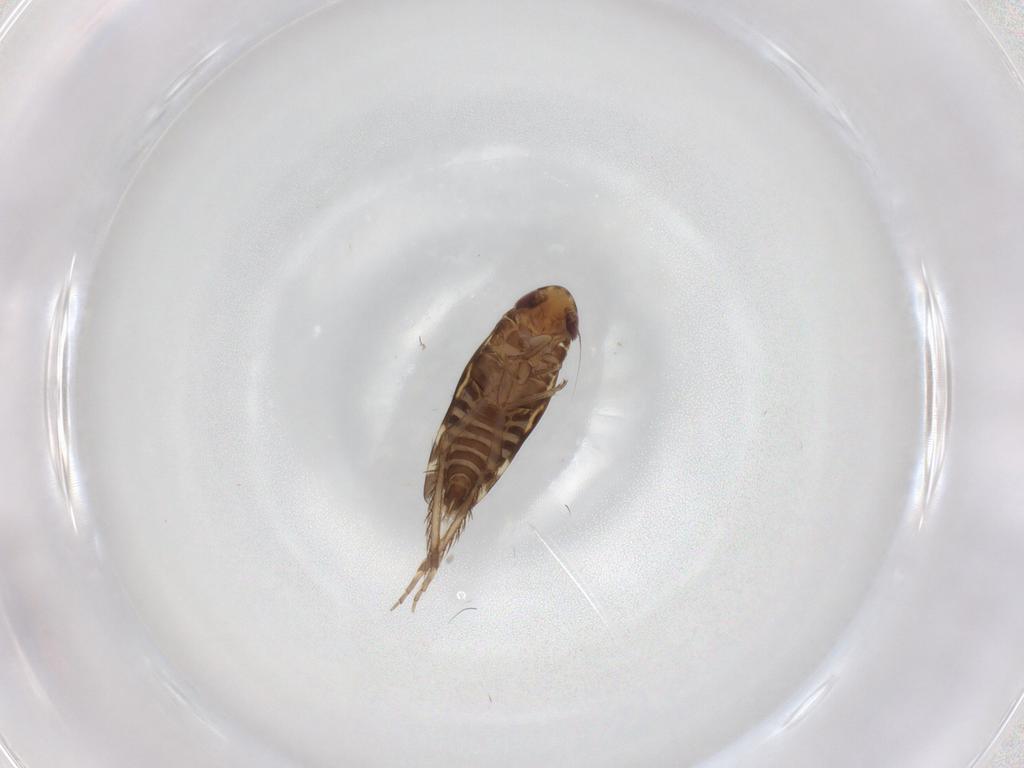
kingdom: Animalia
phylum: Arthropoda
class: Insecta
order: Hemiptera
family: Cicadellidae
